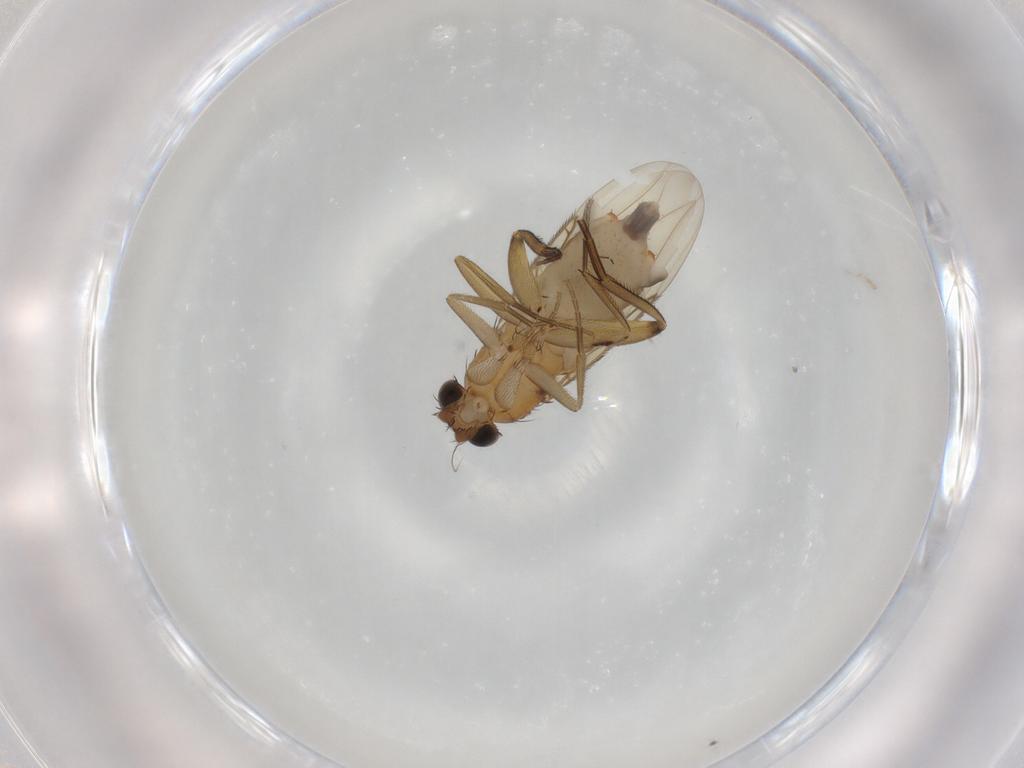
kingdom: Animalia
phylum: Arthropoda
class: Insecta
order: Diptera
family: Phoridae
